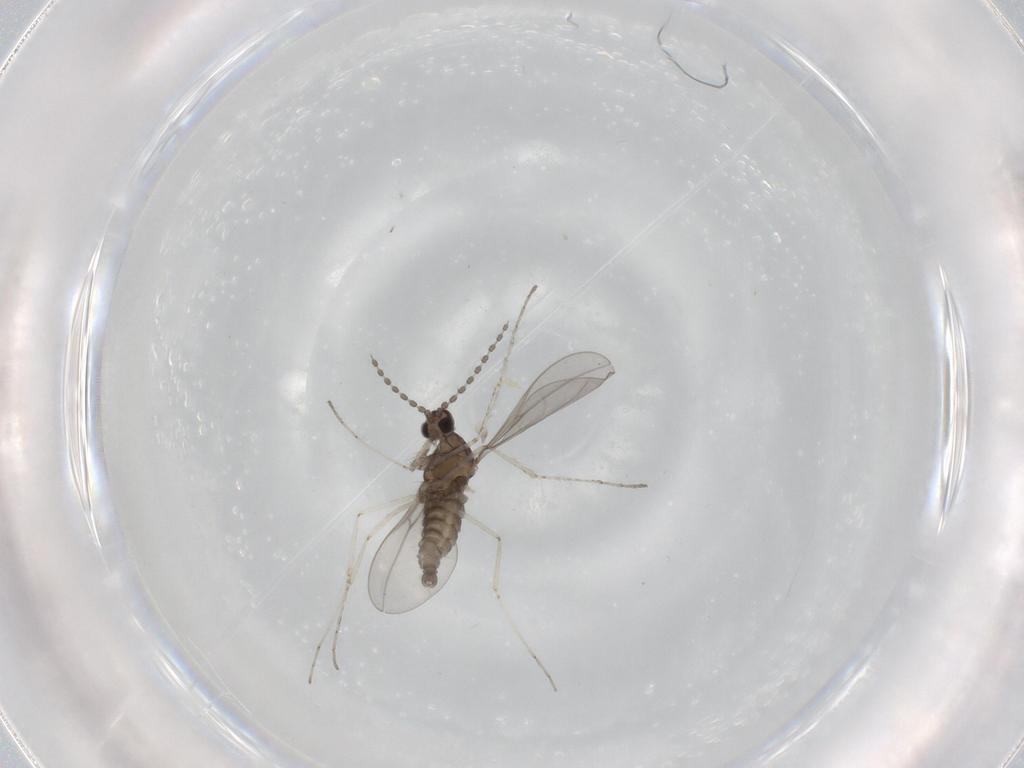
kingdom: Animalia
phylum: Arthropoda
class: Insecta
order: Diptera
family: Cecidomyiidae
